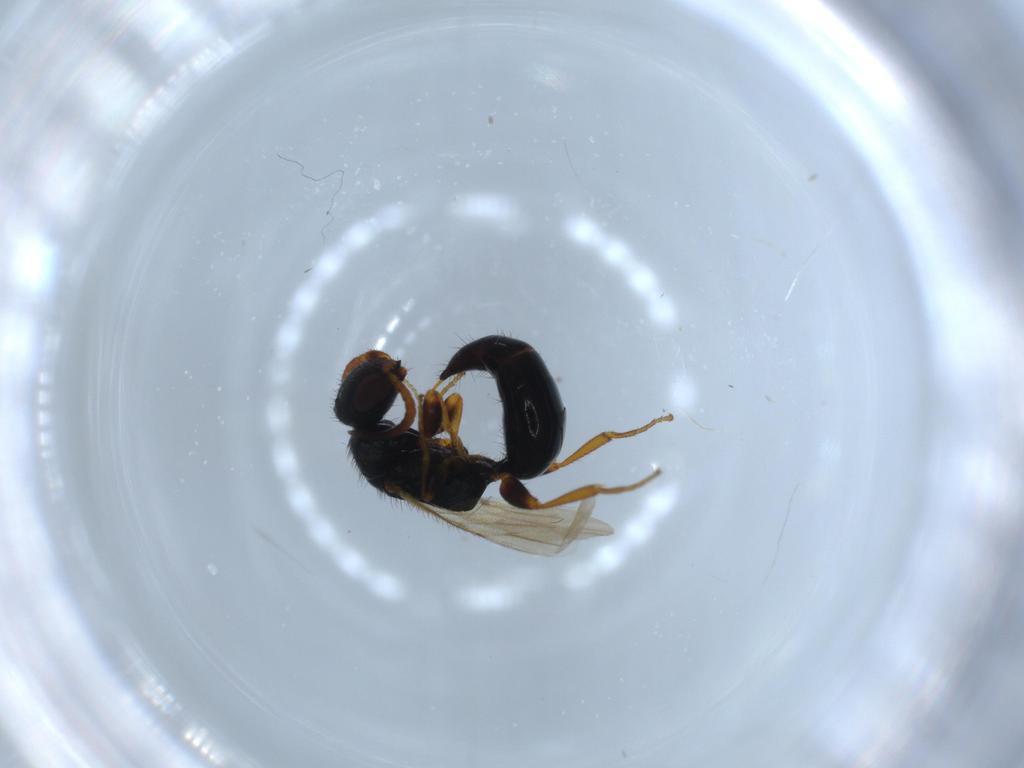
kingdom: Animalia
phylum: Arthropoda
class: Insecta
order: Hymenoptera
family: Bethylidae
